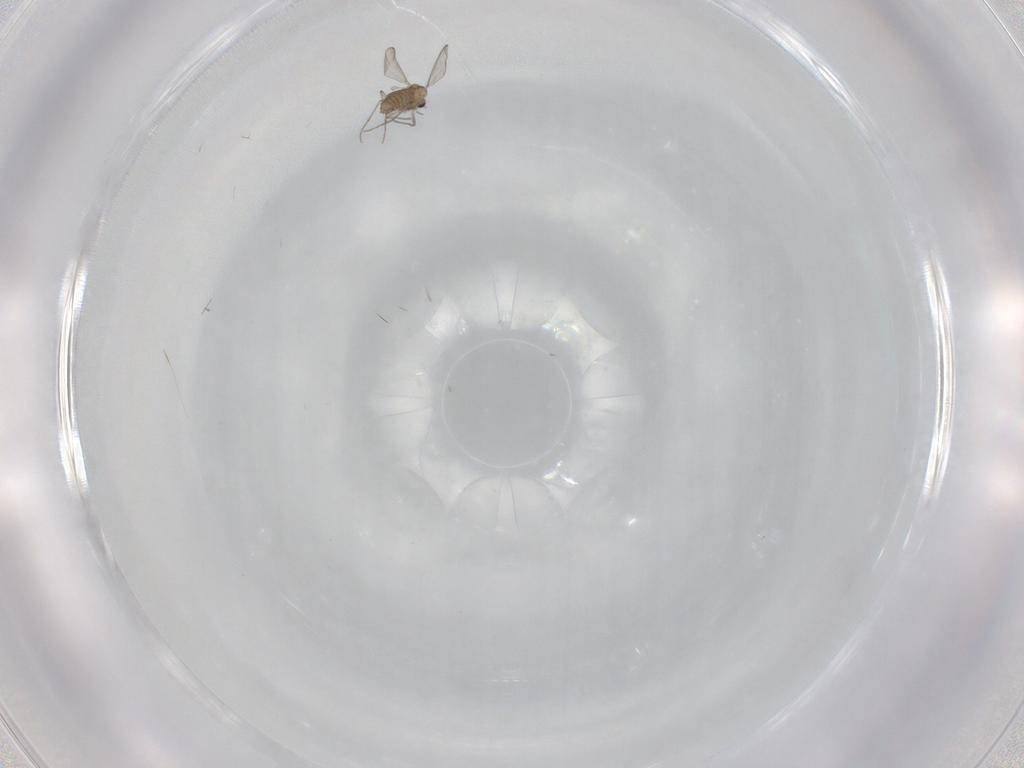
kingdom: Animalia
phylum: Arthropoda
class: Insecta
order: Diptera
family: Chironomidae
